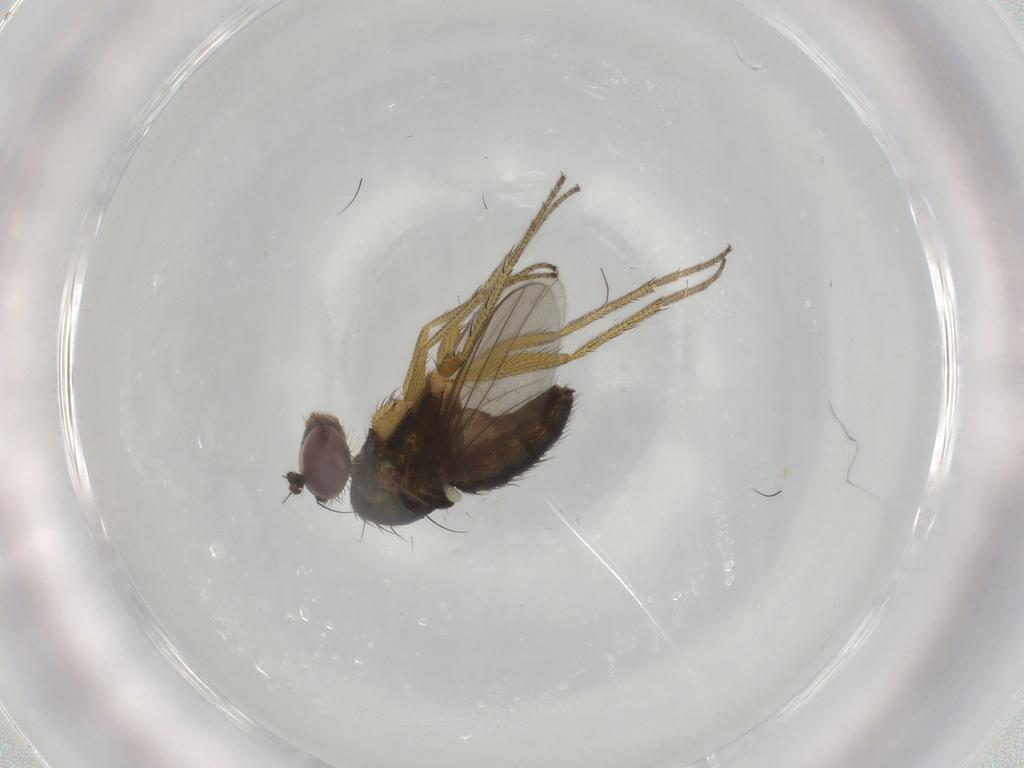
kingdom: Animalia
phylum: Arthropoda
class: Insecta
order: Diptera
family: Dolichopodidae
